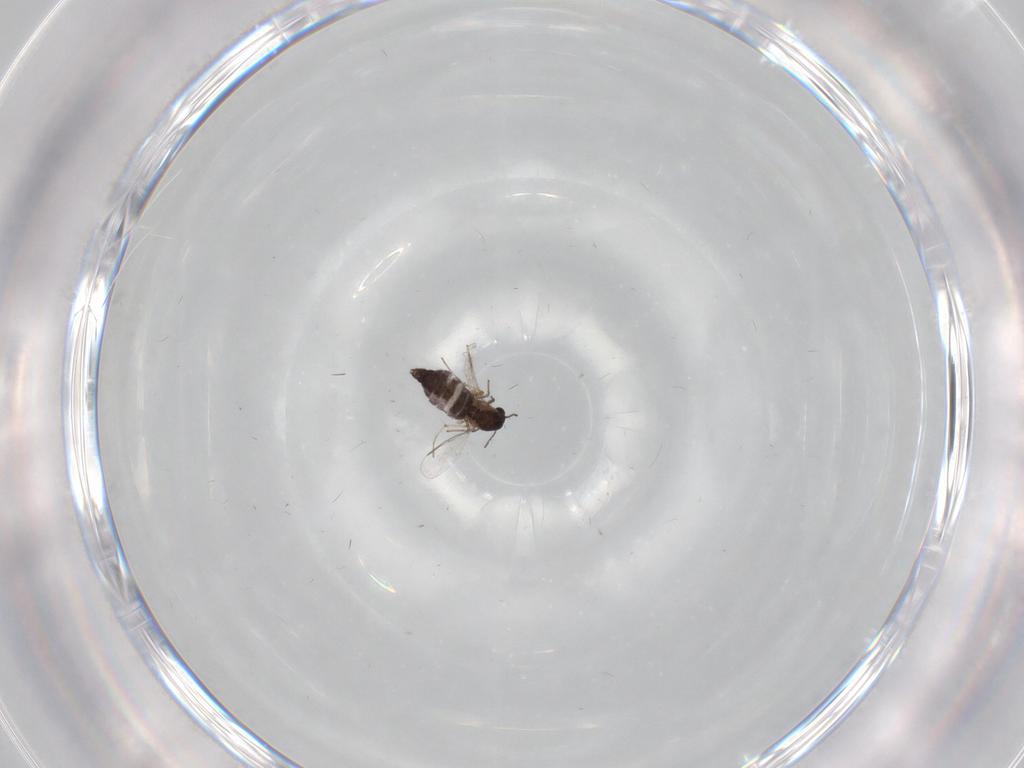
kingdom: Animalia
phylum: Arthropoda
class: Insecta
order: Diptera
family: Chironomidae
